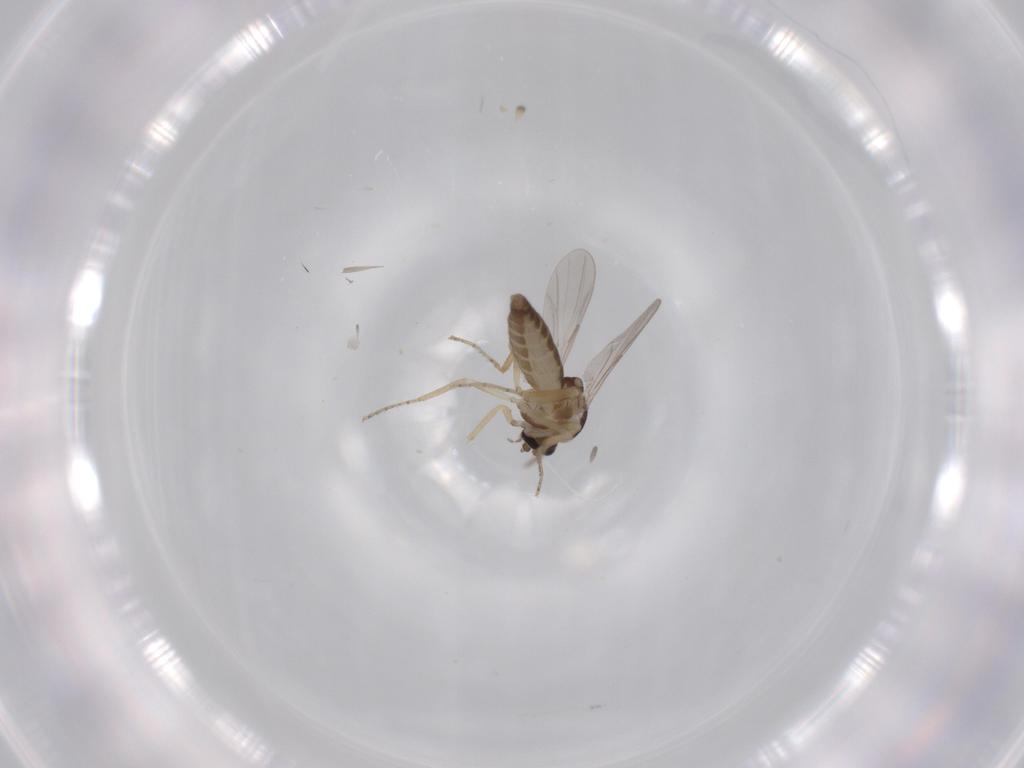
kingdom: Animalia
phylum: Arthropoda
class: Insecta
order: Diptera
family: Ceratopogonidae
